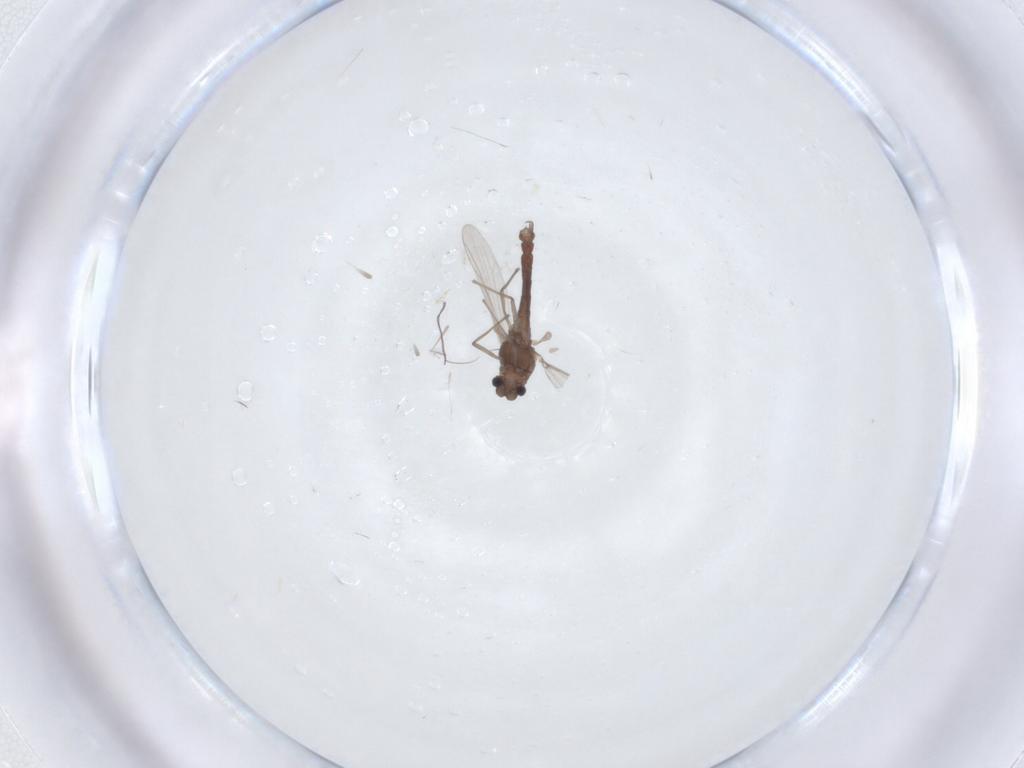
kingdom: Animalia
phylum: Arthropoda
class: Insecta
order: Diptera
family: Chironomidae
